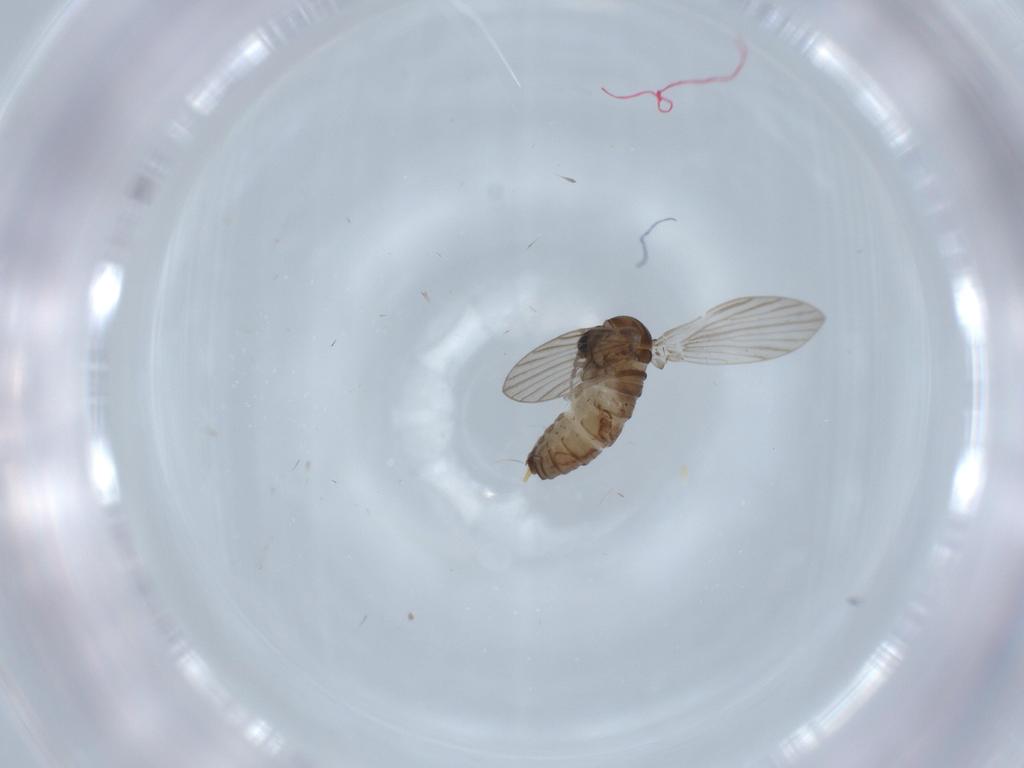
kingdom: Animalia
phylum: Arthropoda
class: Insecta
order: Diptera
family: Psychodidae
